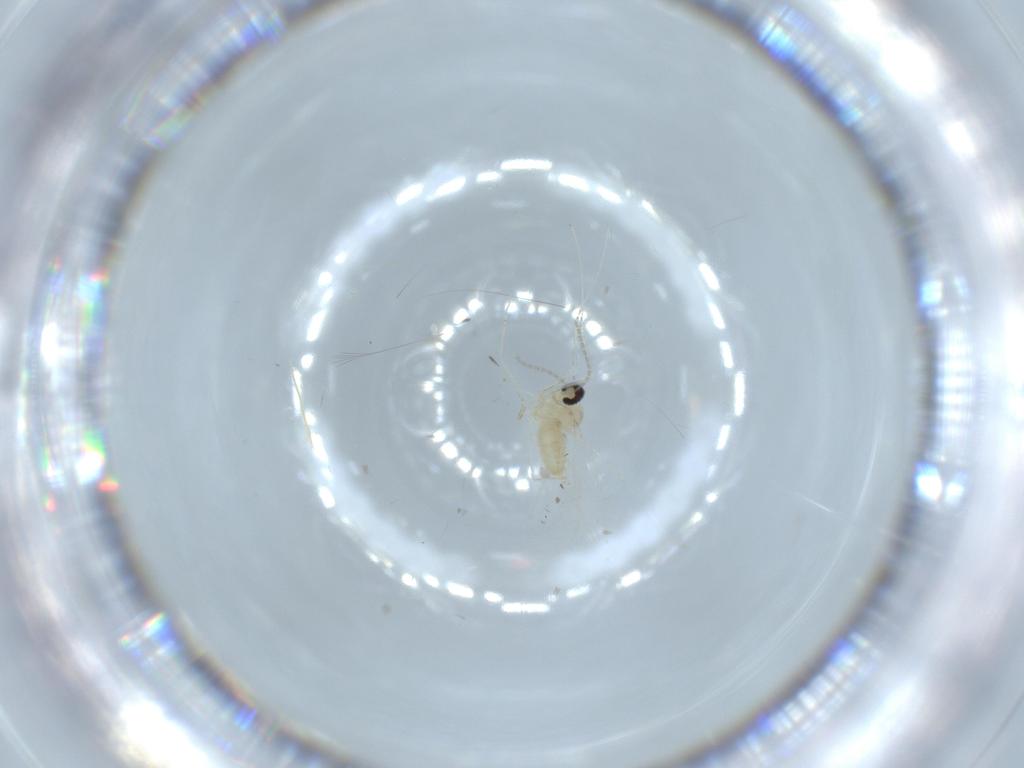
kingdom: Animalia
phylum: Arthropoda
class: Insecta
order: Diptera
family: Cecidomyiidae
